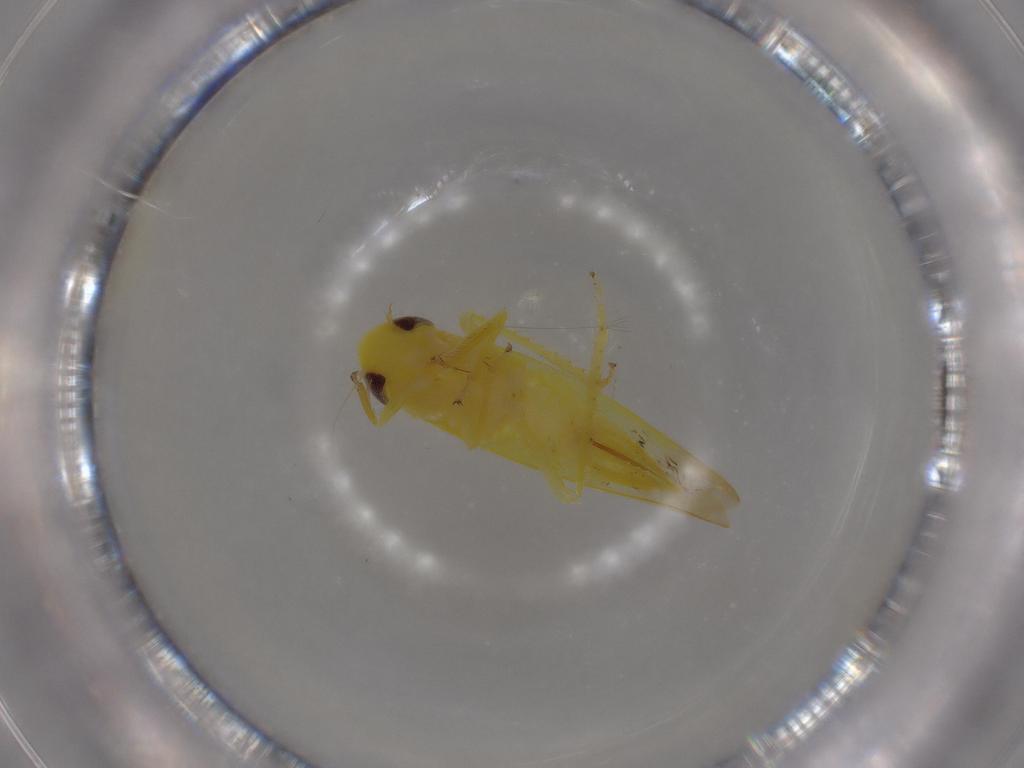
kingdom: Animalia
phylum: Arthropoda
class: Insecta
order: Hemiptera
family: Cicadellidae
